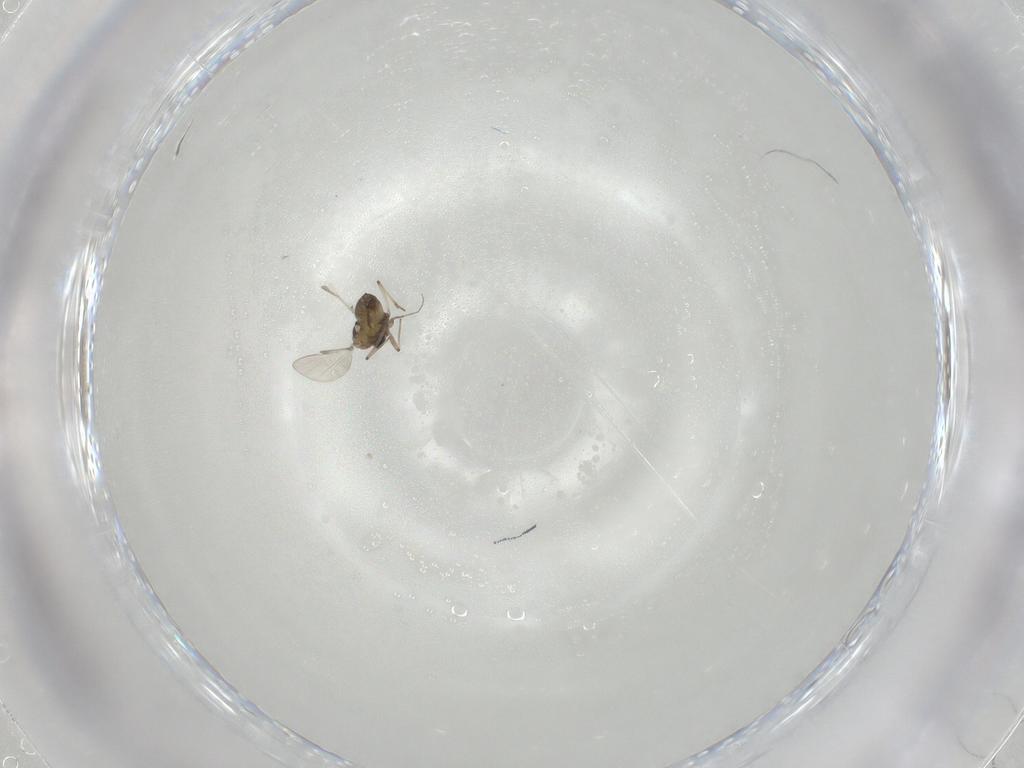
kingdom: Animalia
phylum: Arthropoda
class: Insecta
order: Diptera
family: Chironomidae
